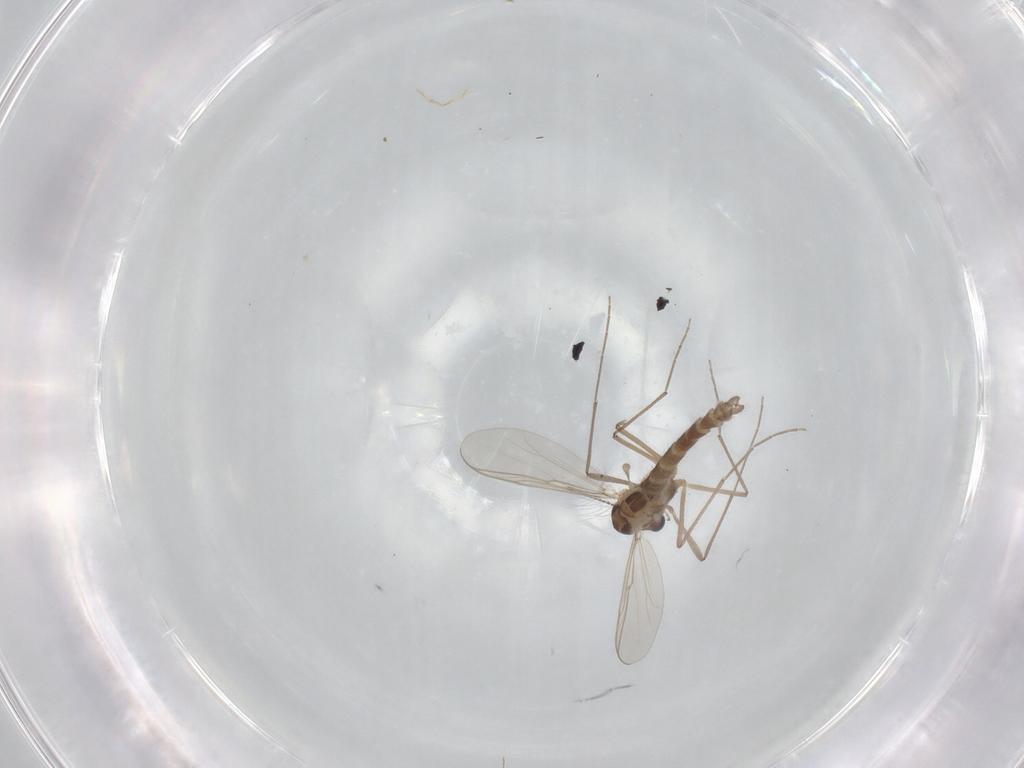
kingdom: Animalia
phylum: Arthropoda
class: Insecta
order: Diptera
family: Chironomidae
